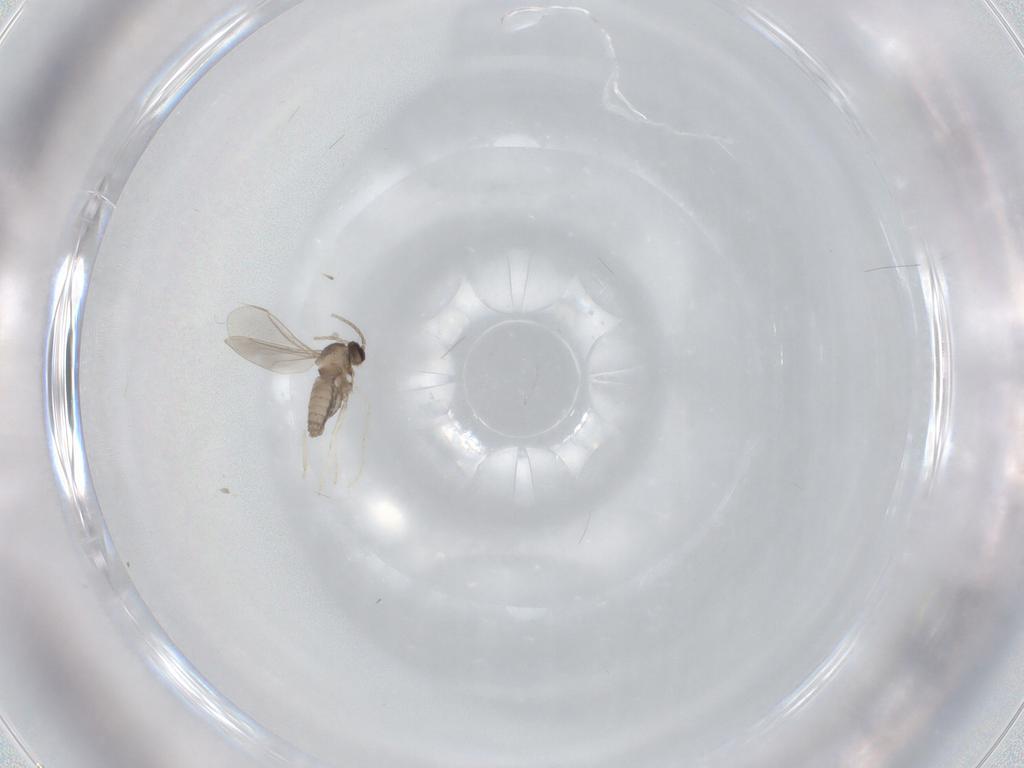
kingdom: Animalia
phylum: Arthropoda
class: Insecta
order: Diptera
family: Cecidomyiidae
